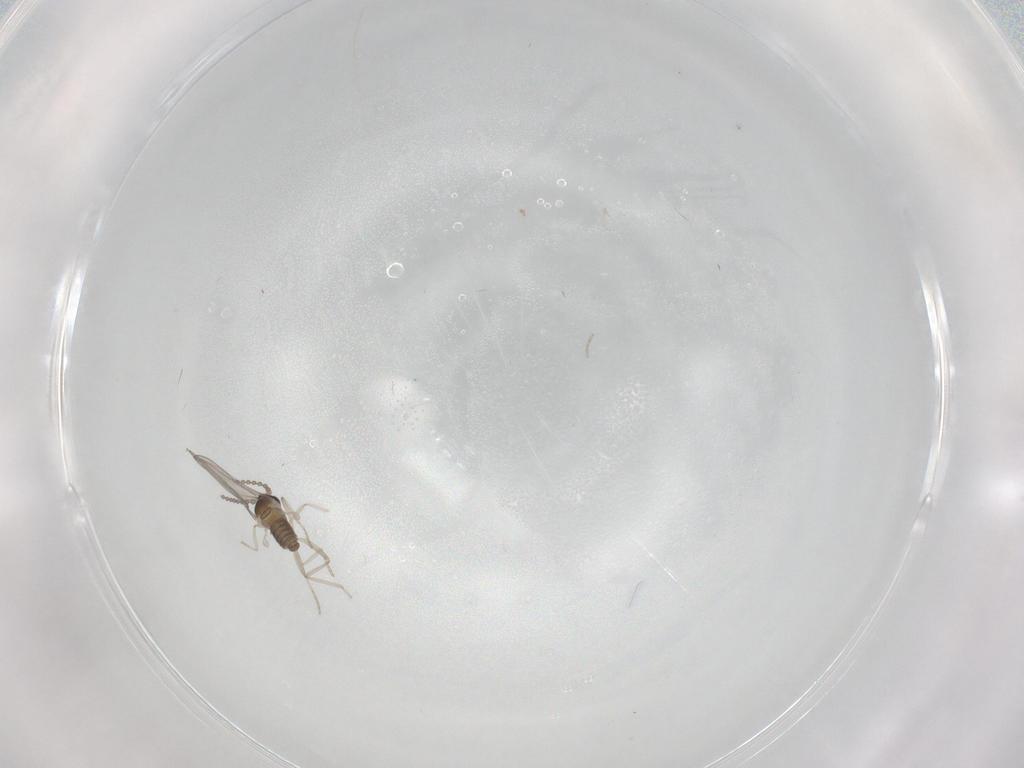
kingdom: Animalia
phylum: Arthropoda
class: Insecta
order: Diptera
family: Cecidomyiidae
